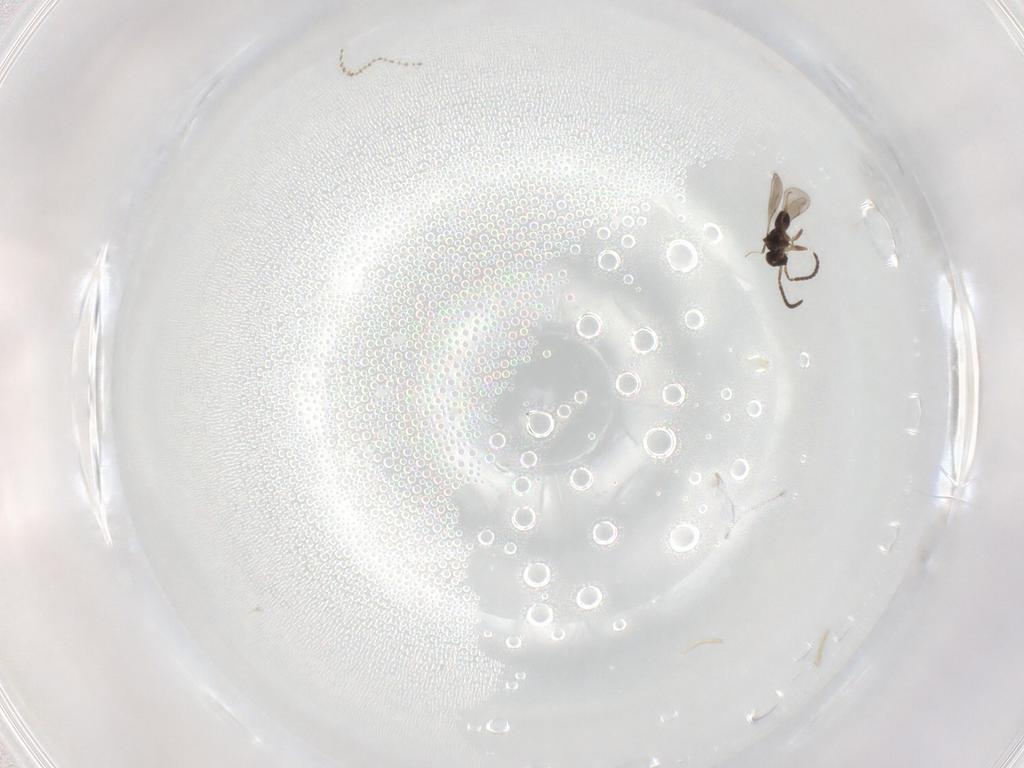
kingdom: Animalia
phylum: Arthropoda
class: Insecta
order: Hymenoptera
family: Ceraphronidae
